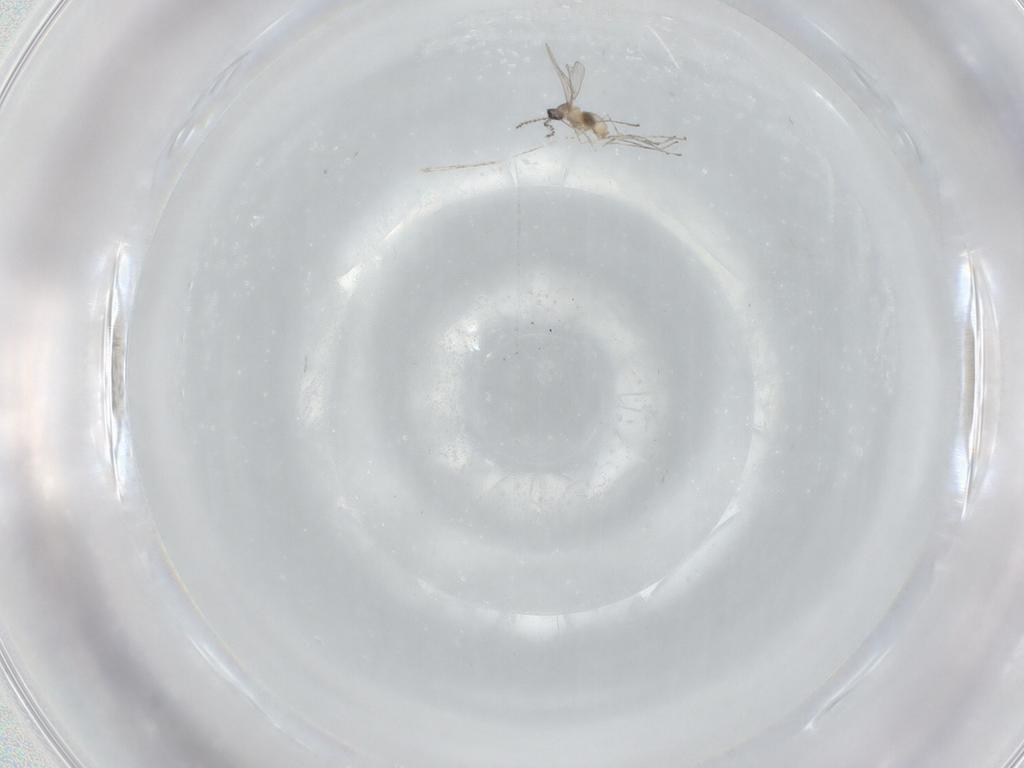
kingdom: Animalia
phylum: Arthropoda
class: Insecta
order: Diptera
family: Cecidomyiidae
